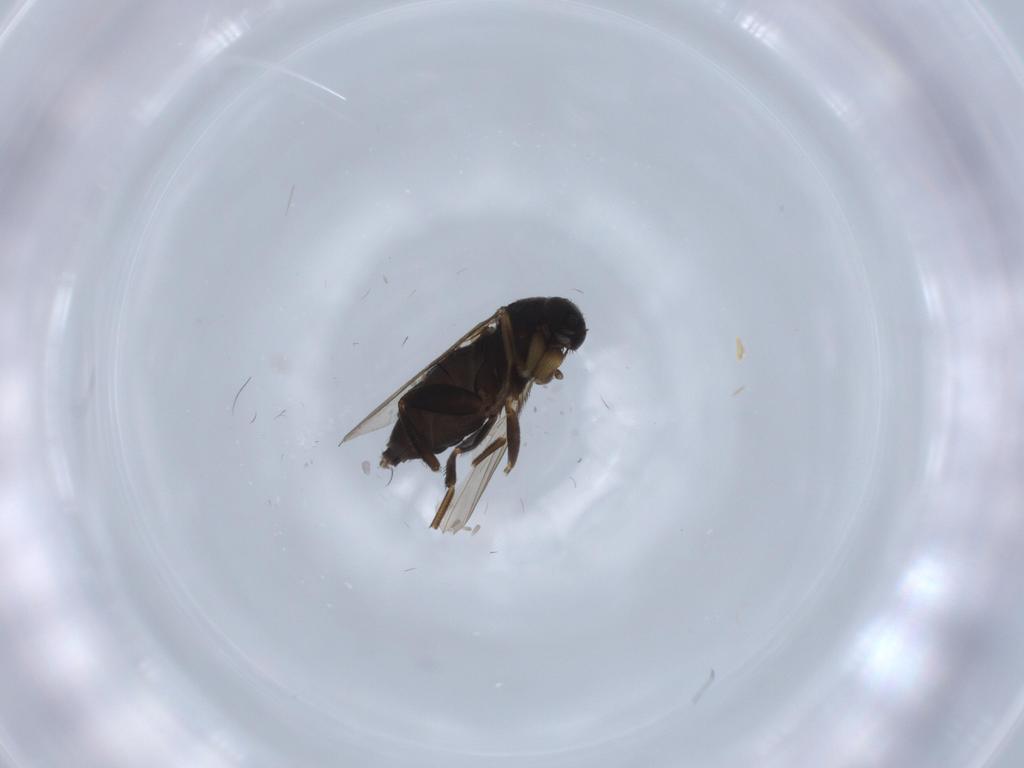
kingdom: Animalia
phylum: Arthropoda
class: Insecta
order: Diptera
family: Phoridae
